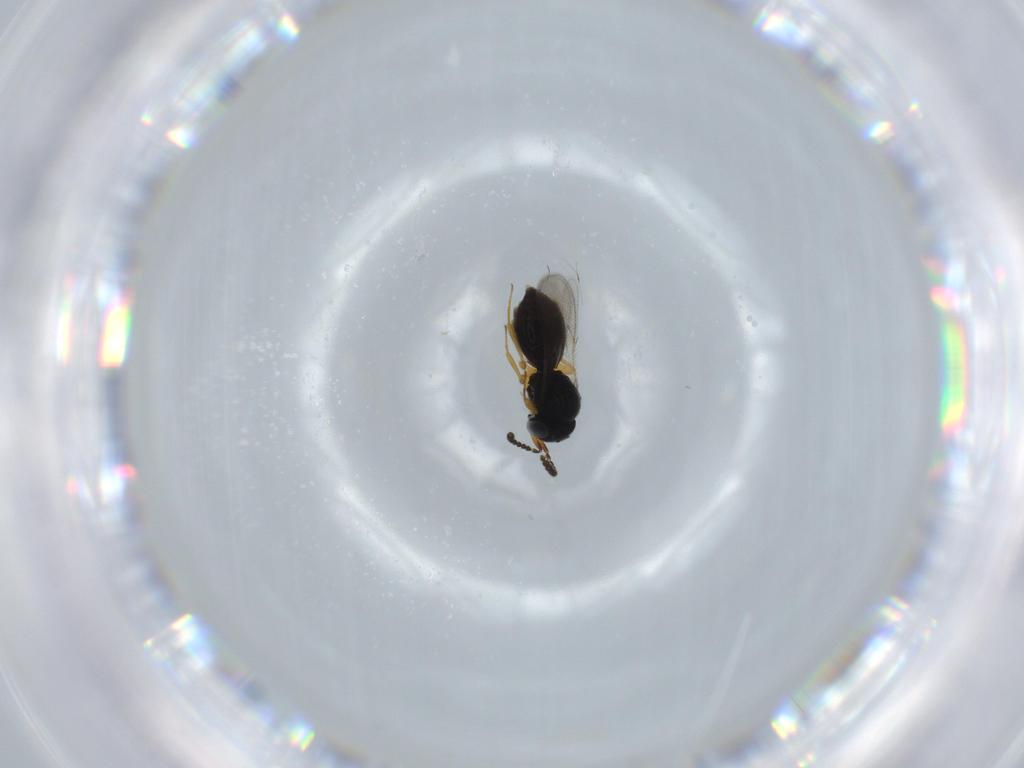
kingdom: Animalia
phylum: Arthropoda
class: Insecta
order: Hymenoptera
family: Scelionidae
